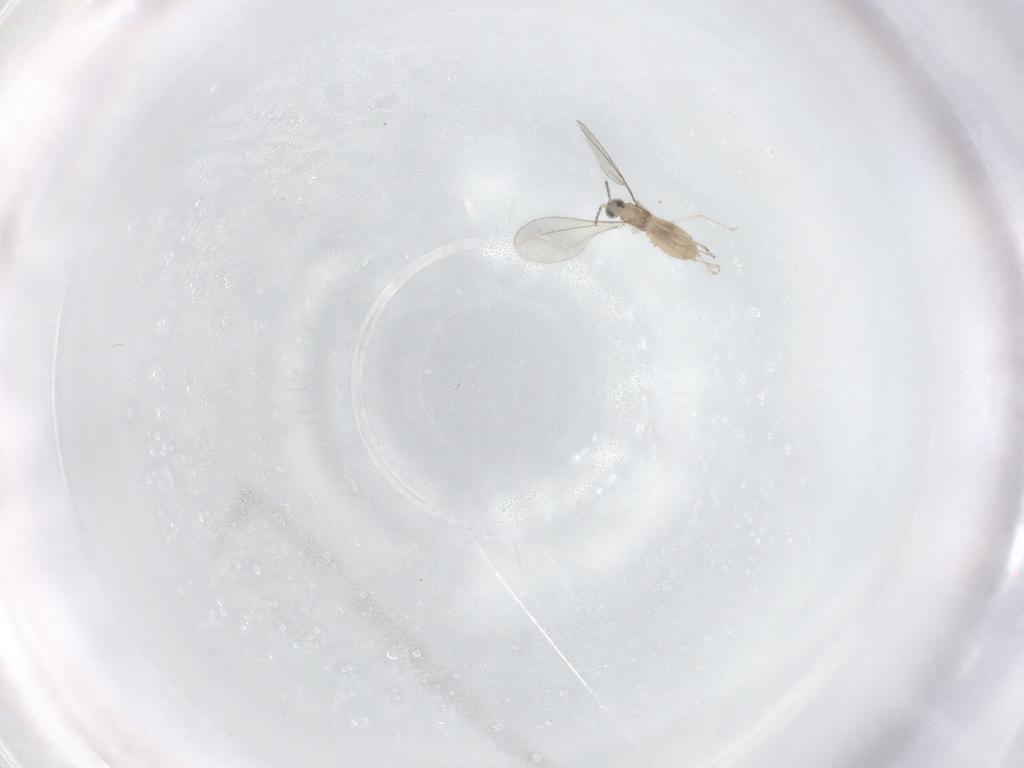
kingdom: Animalia
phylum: Arthropoda
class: Insecta
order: Diptera
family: Cecidomyiidae
